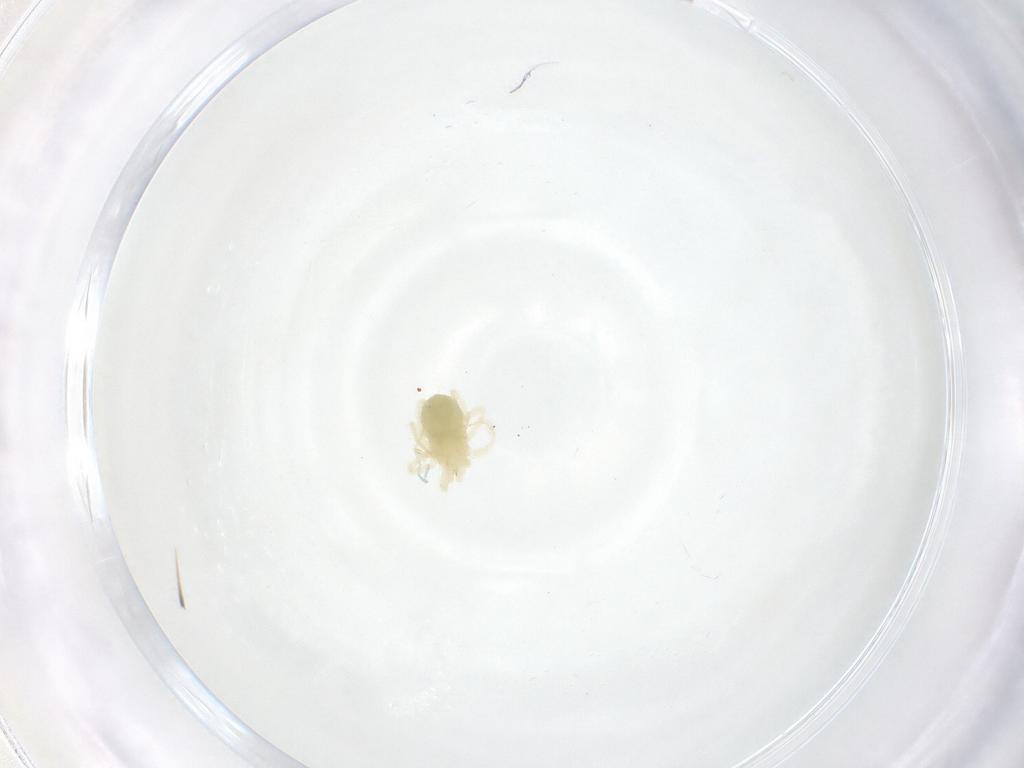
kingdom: Animalia
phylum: Arthropoda
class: Arachnida
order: Trombidiformes
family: Anystidae
